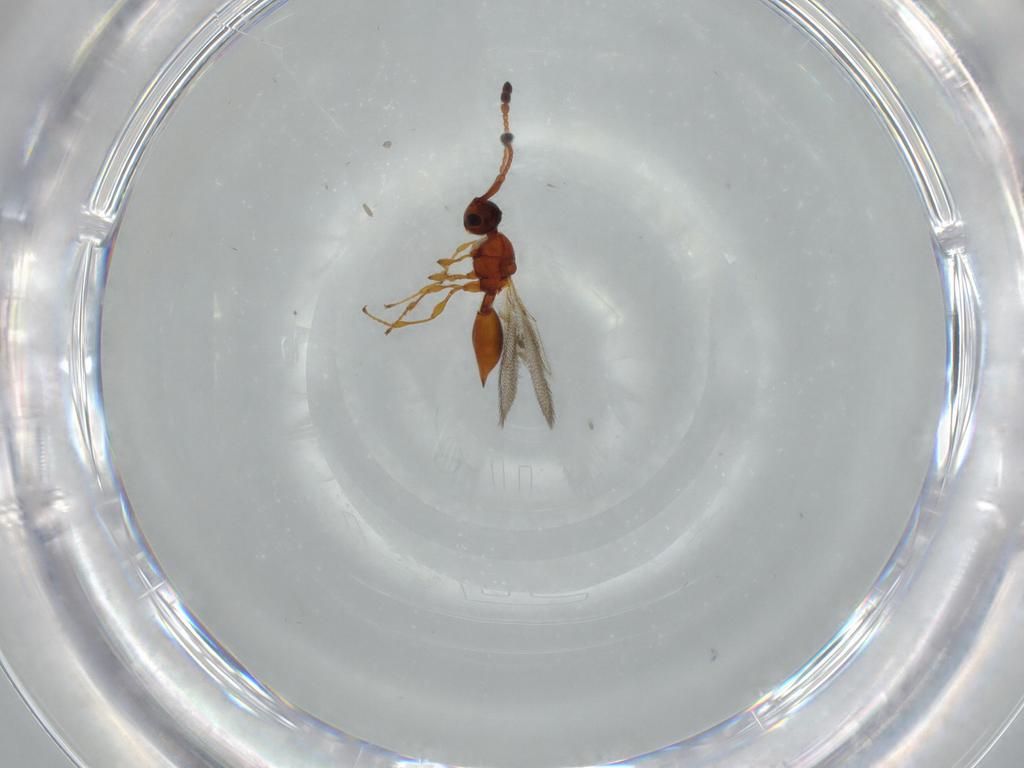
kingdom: Animalia
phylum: Arthropoda
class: Insecta
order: Hymenoptera
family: Diapriidae
